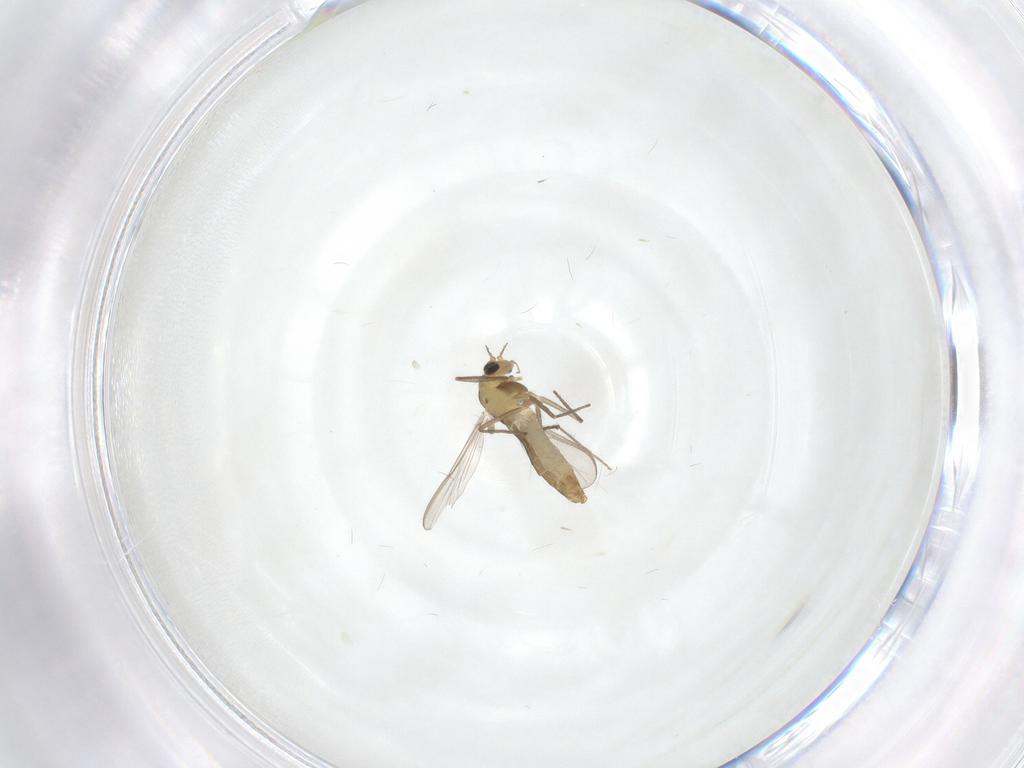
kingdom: Animalia
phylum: Arthropoda
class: Insecta
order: Diptera
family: Chironomidae
